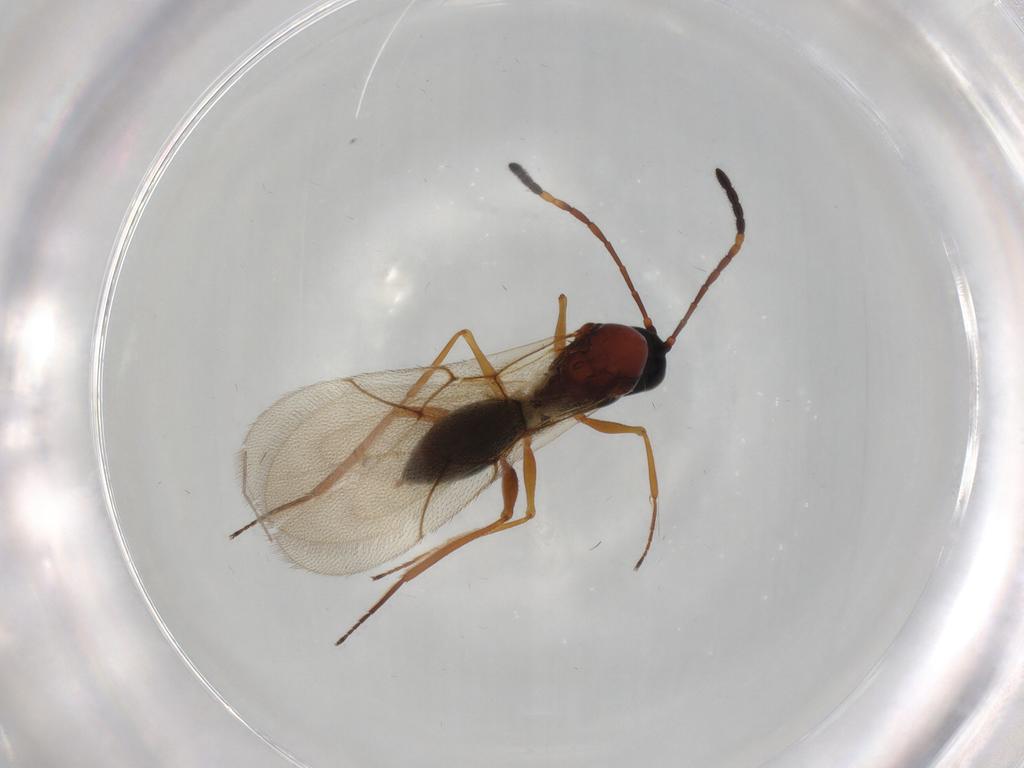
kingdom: Animalia
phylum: Arthropoda
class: Insecta
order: Hymenoptera
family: Figitidae
